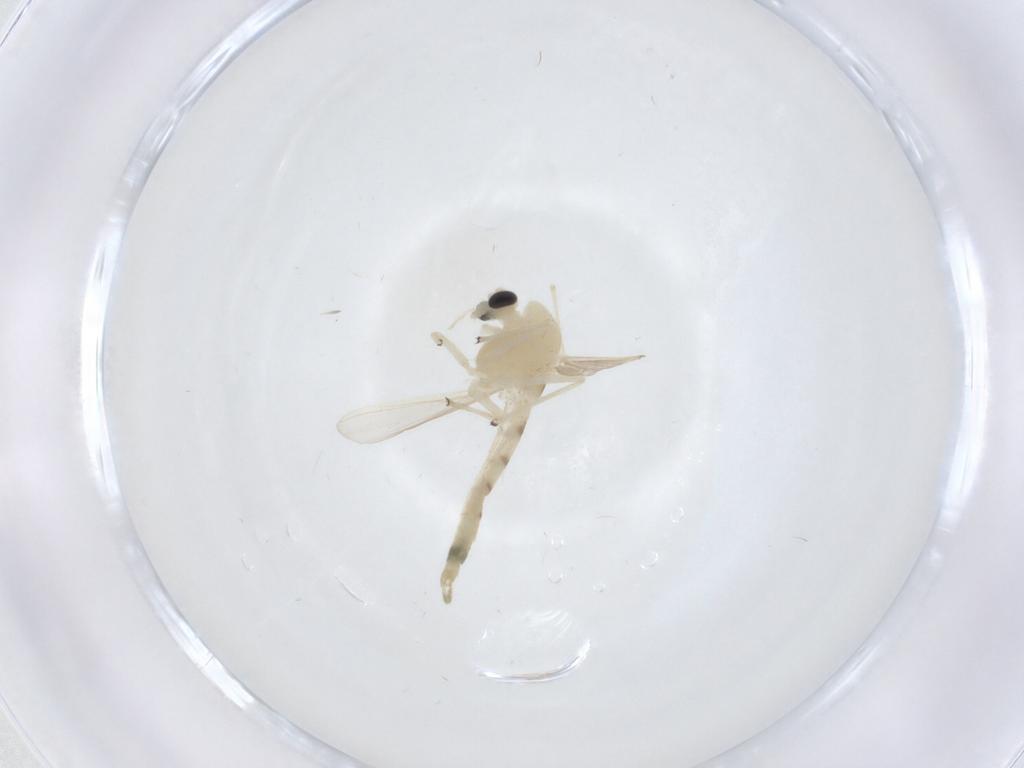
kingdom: Animalia
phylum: Arthropoda
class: Insecta
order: Diptera
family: Chironomidae
